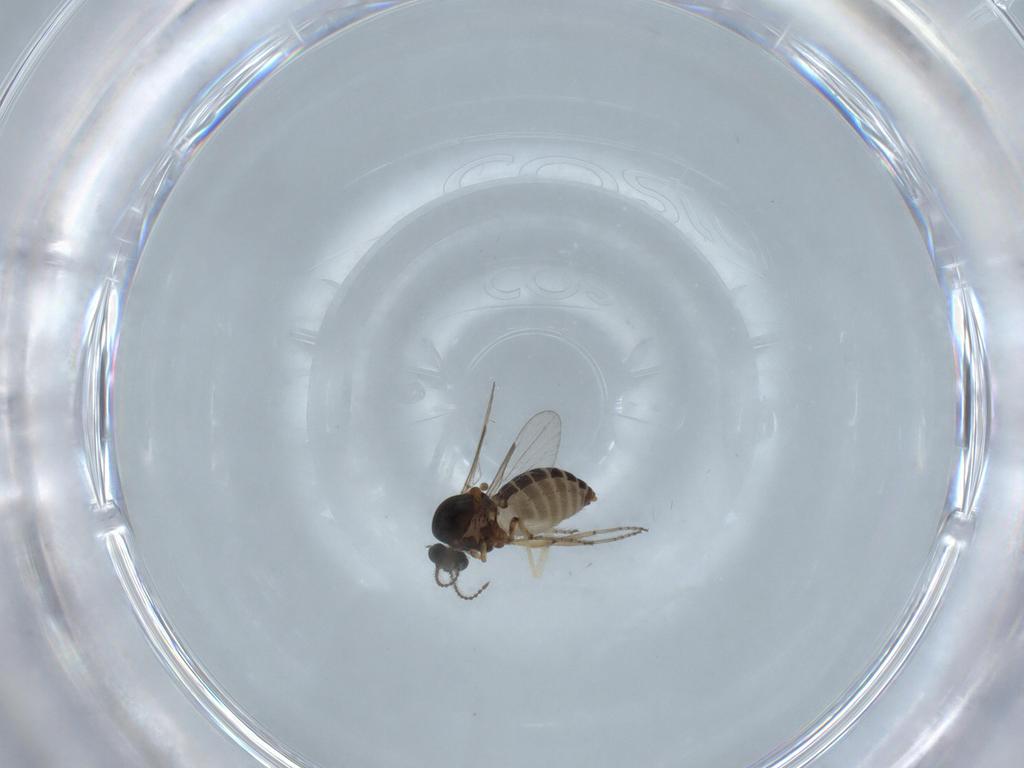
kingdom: Animalia
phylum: Arthropoda
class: Insecta
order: Diptera
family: Ceratopogonidae
